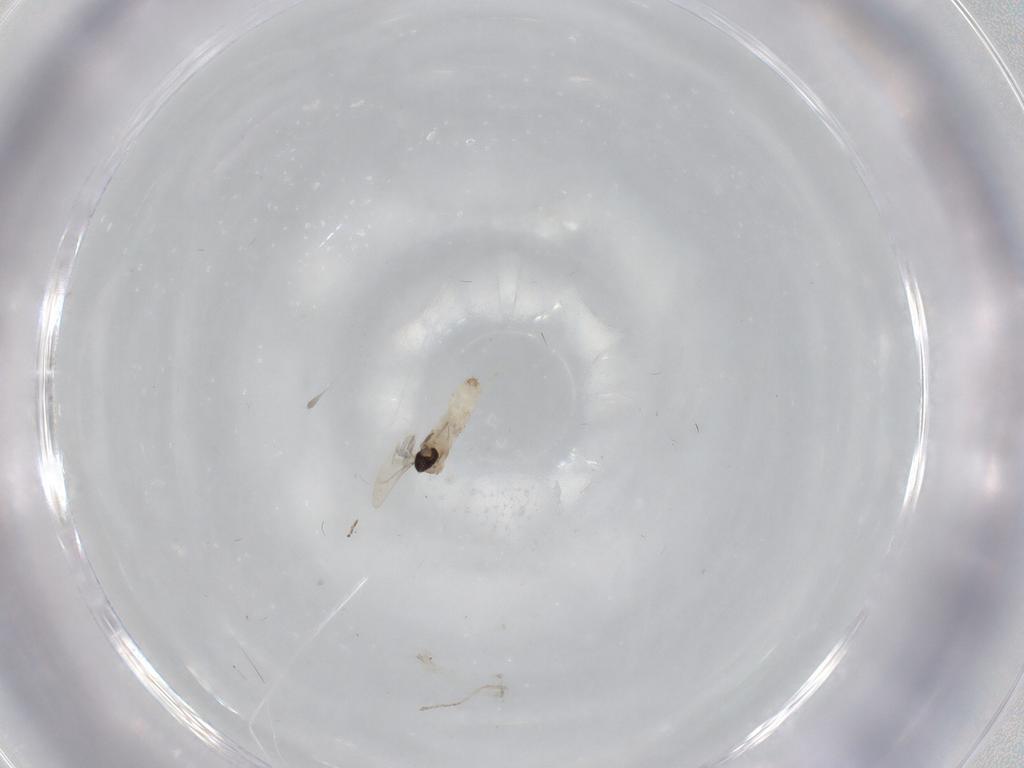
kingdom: Animalia
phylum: Arthropoda
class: Insecta
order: Diptera
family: Cecidomyiidae
